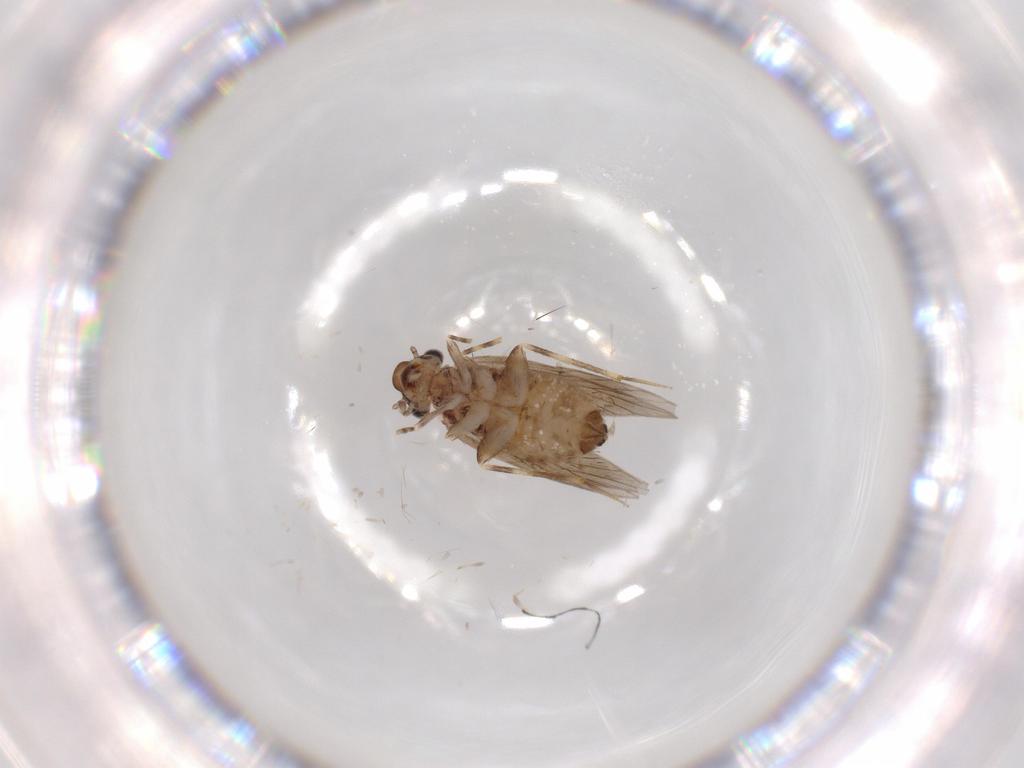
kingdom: Animalia
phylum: Arthropoda
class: Insecta
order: Psocodea
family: Lepidopsocidae
